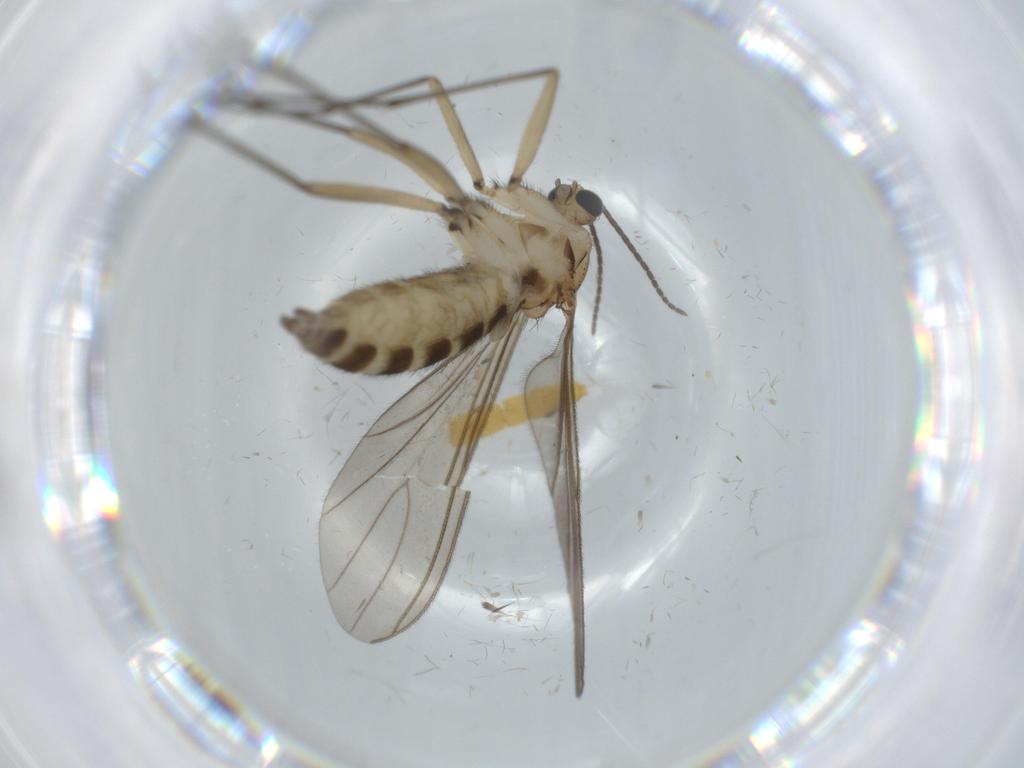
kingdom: Animalia
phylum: Arthropoda
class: Insecta
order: Diptera
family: Sciaridae
